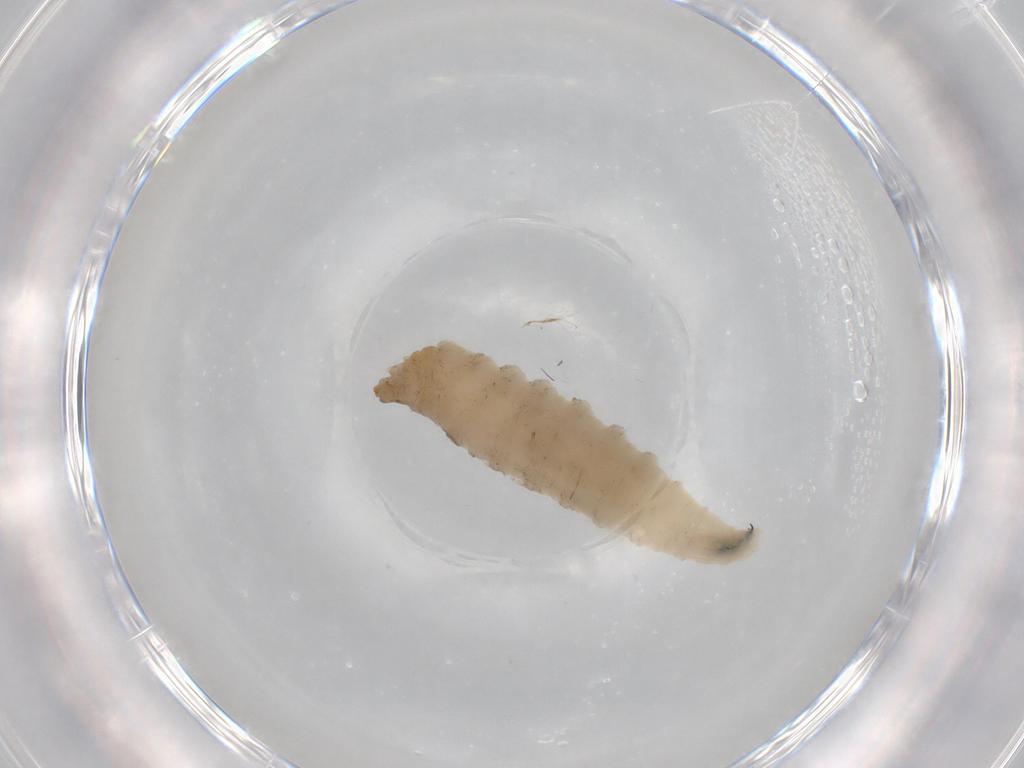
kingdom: Animalia
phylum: Arthropoda
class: Insecta
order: Diptera
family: Drosophilidae
